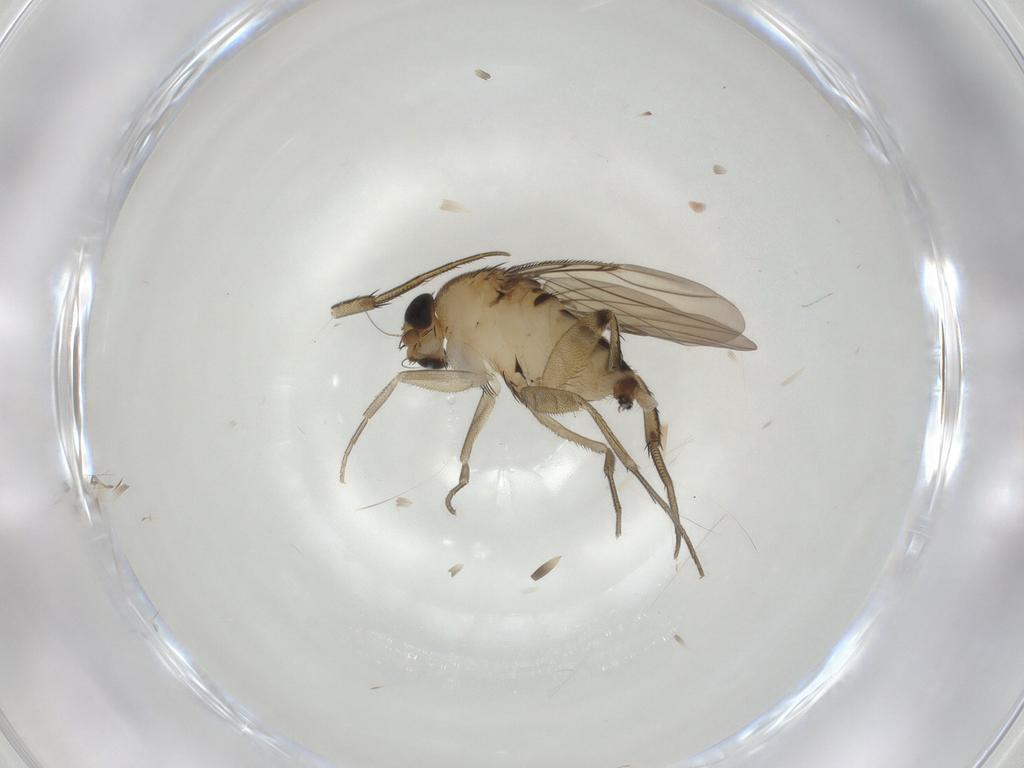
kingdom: Animalia
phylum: Arthropoda
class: Insecta
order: Diptera
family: Phoridae
